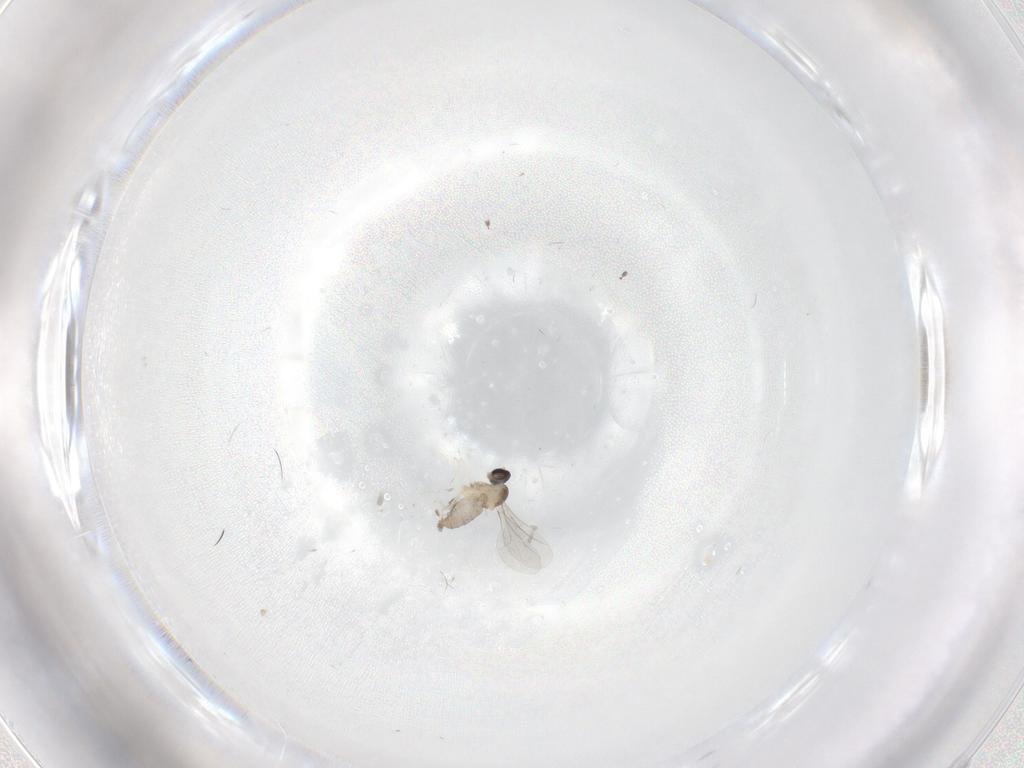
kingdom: Animalia
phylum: Arthropoda
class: Insecta
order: Diptera
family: Cecidomyiidae
